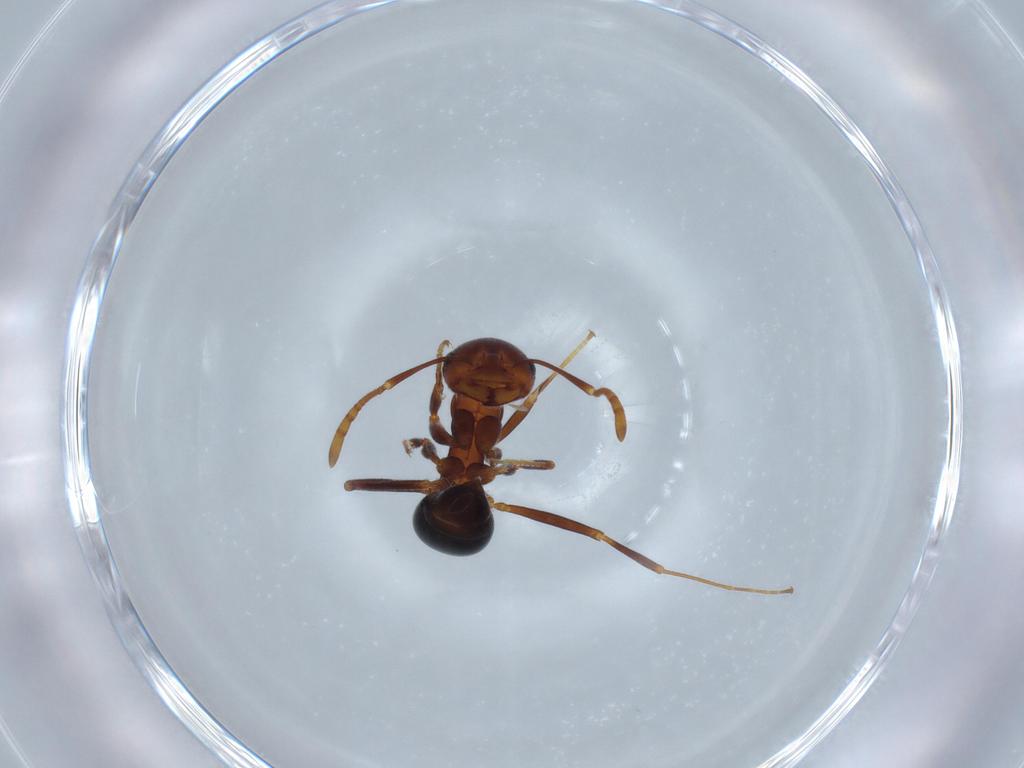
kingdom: Animalia
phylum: Arthropoda
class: Insecta
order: Hymenoptera
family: Formicidae
